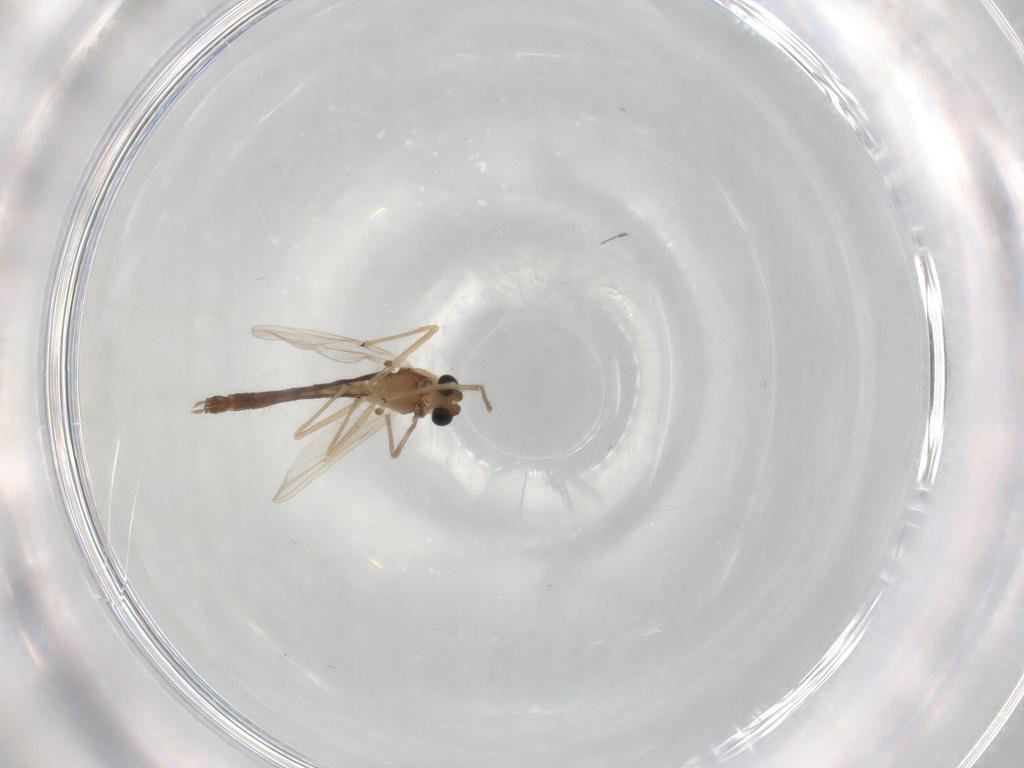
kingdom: Animalia
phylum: Arthropoda
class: Insecta
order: Diptera
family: Chironomidae
